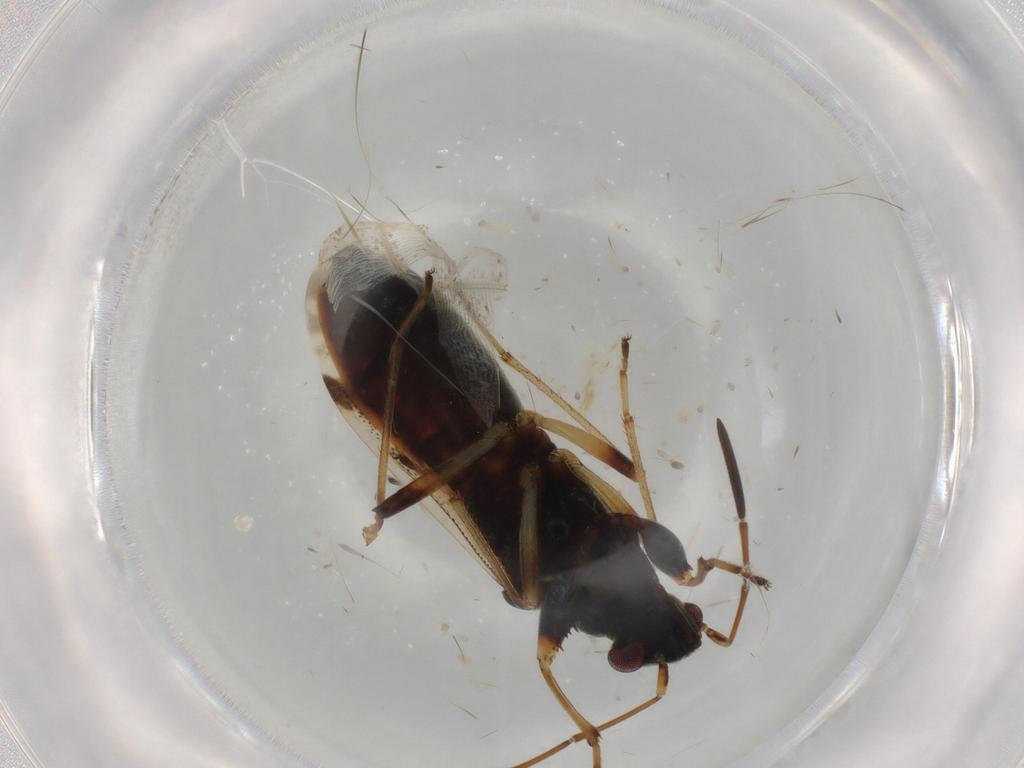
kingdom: Animalia
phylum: Arthropoda
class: Insecta
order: Hemiptera
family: Rhyparochromidae
